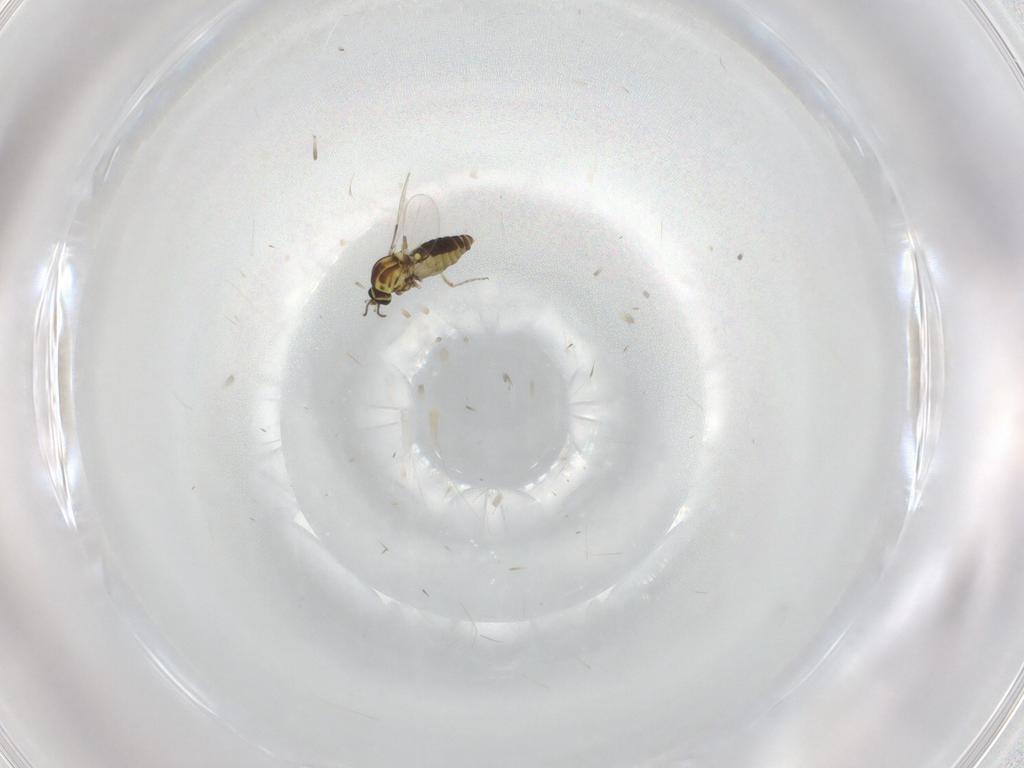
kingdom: Animalia
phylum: Arthropoda
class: Insecta
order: Diptera
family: Ceratopogonidae
